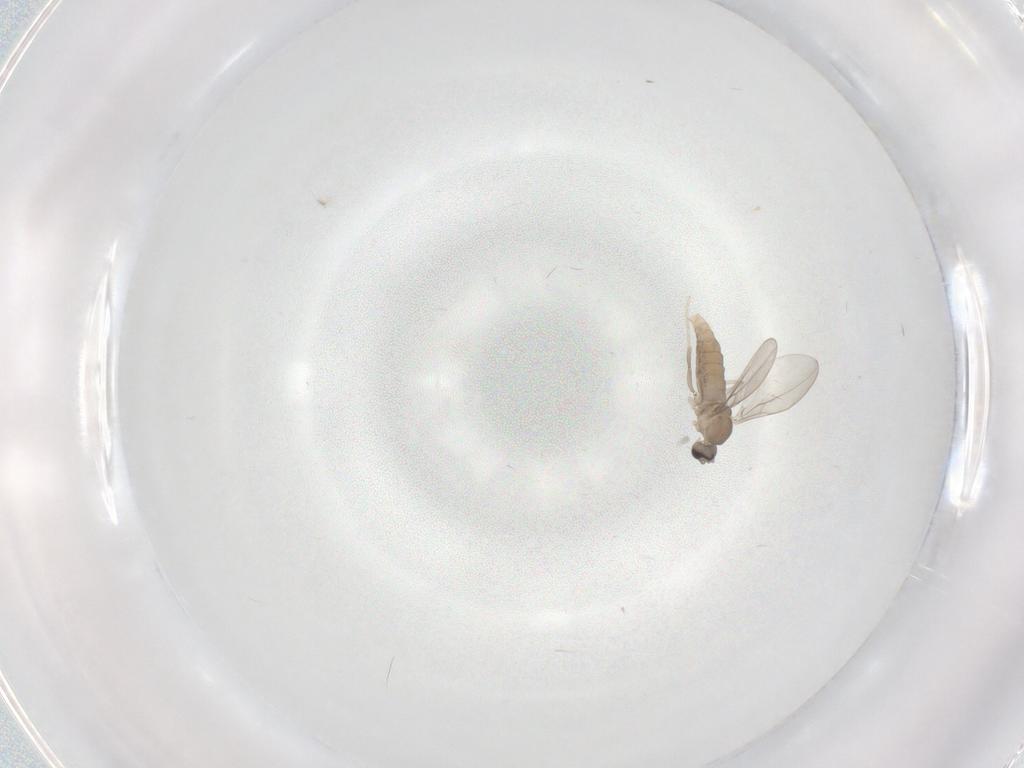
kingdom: Animalia
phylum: Arthropoda
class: Insecta
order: Diptera
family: Cecidomyiidae
